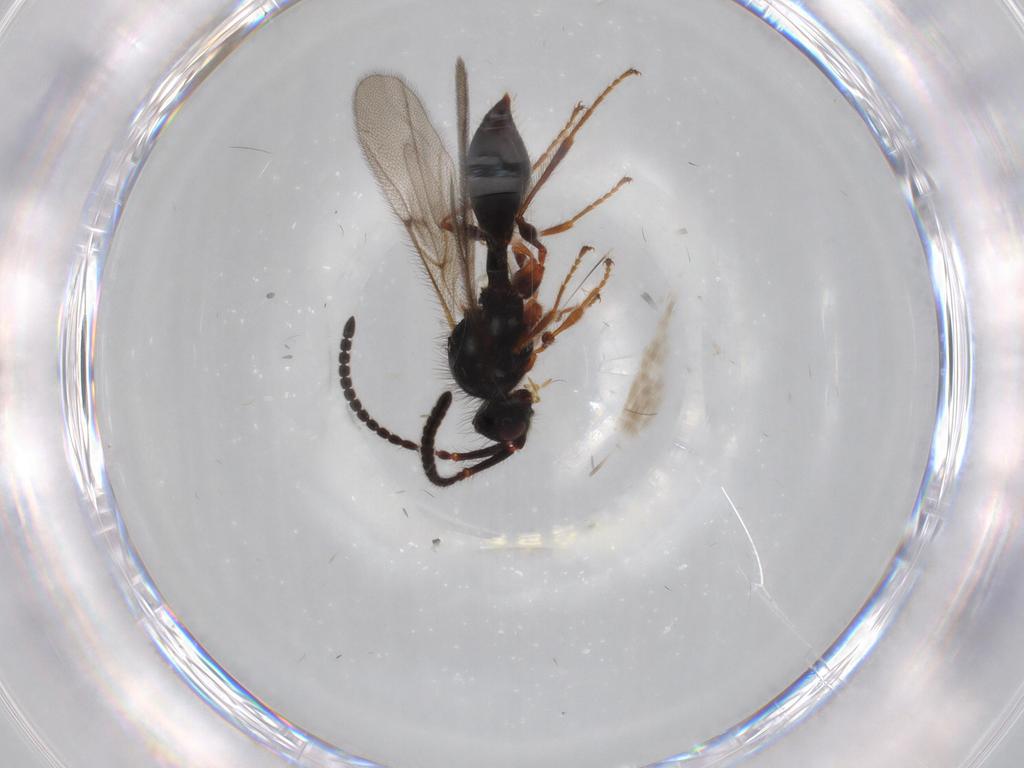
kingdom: Animalia
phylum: Arthropoda
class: Insecta
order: Hymenoptera
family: Diapriidae
